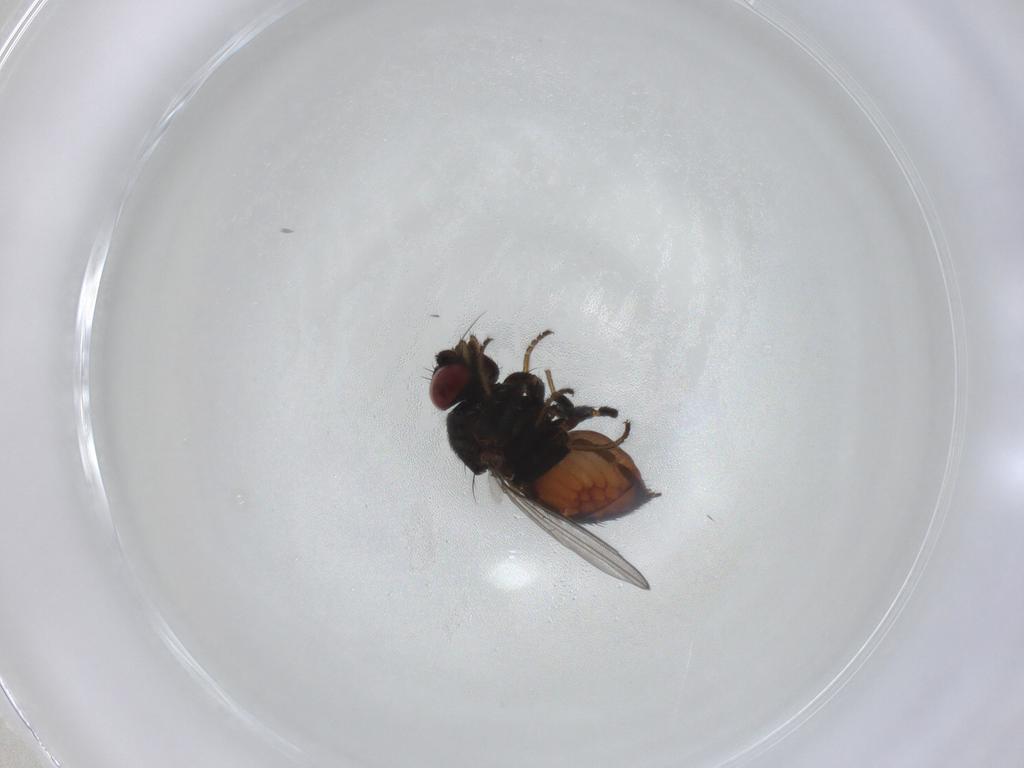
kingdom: Animalia
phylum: Arthropoda
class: Insecta
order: Diptera
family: Milichiidae
